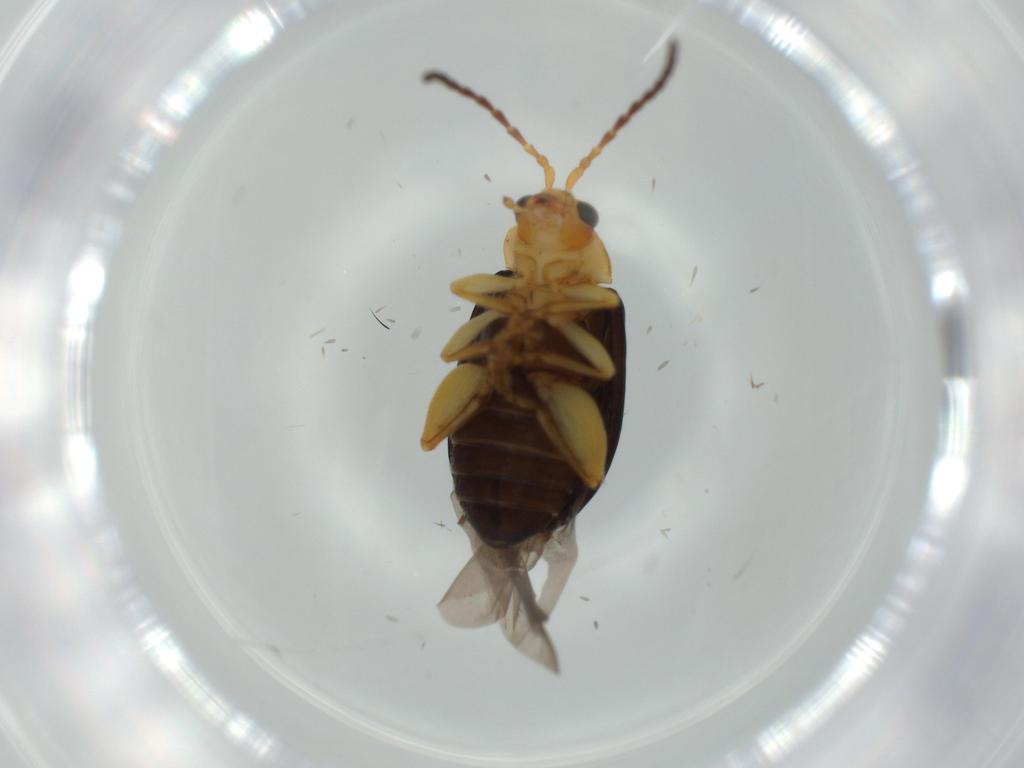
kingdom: Animalia
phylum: Arthropoda
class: Insecta
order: Coleoptera
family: Chrysomelidae
